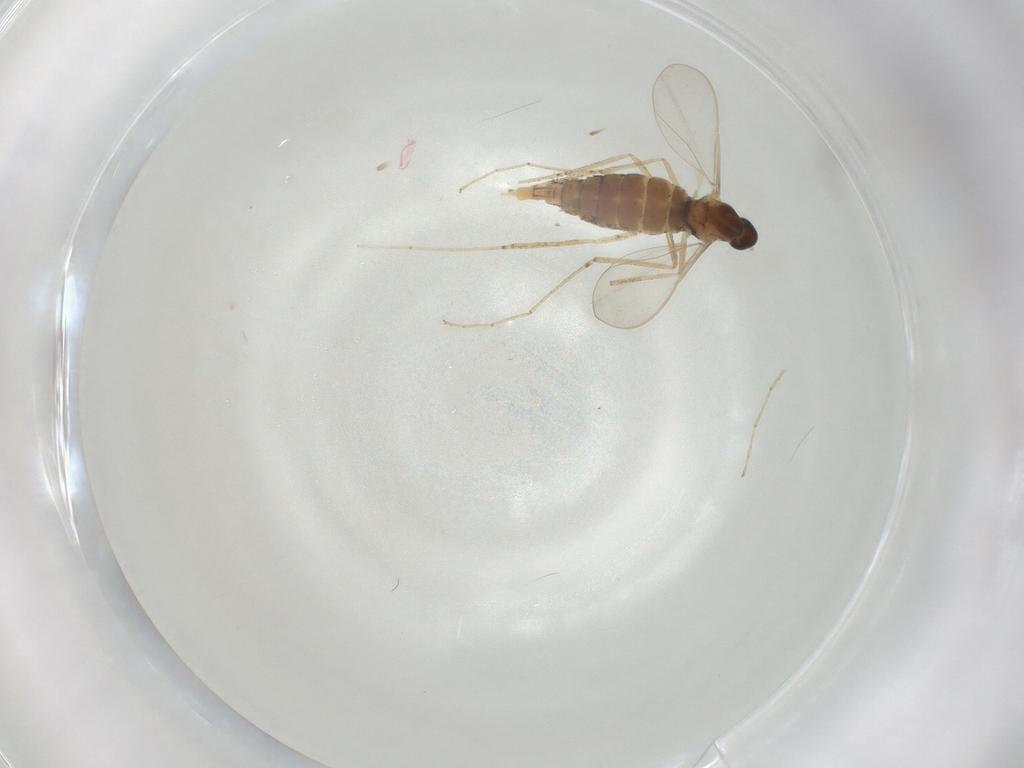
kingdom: Animalia
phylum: Arthropoda
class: Insecta
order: Diptera
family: Cecidomyiidae
